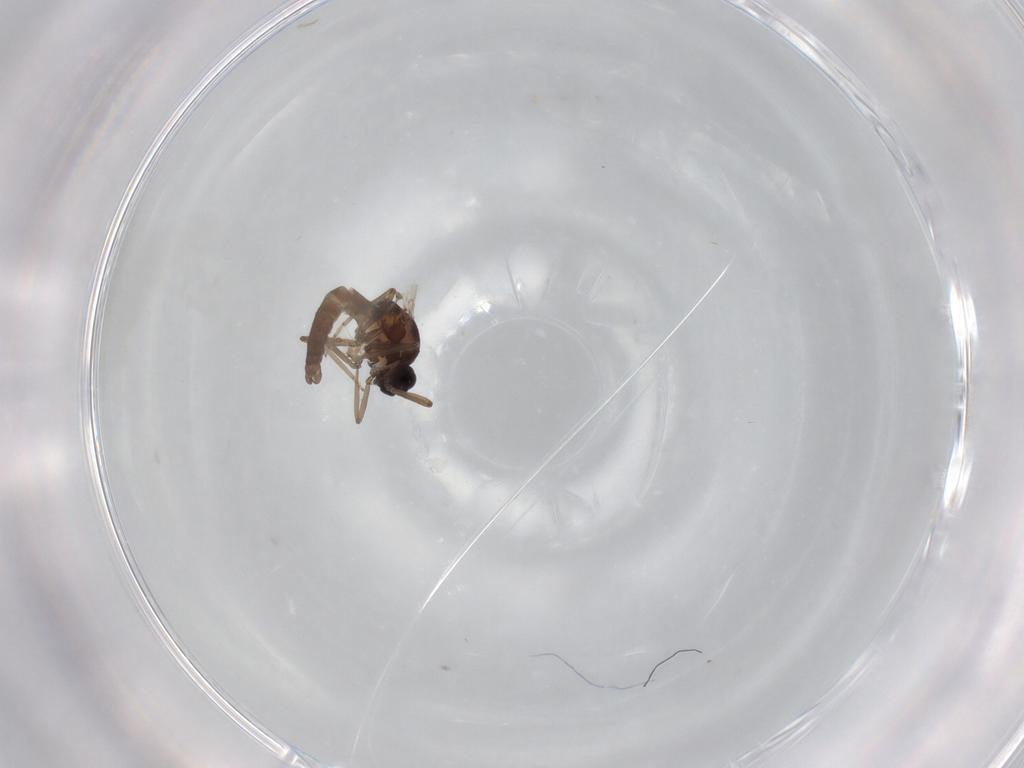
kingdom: Animalia
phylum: Arthropoda
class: Insecta
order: Diptera
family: Ceratopogonidae
